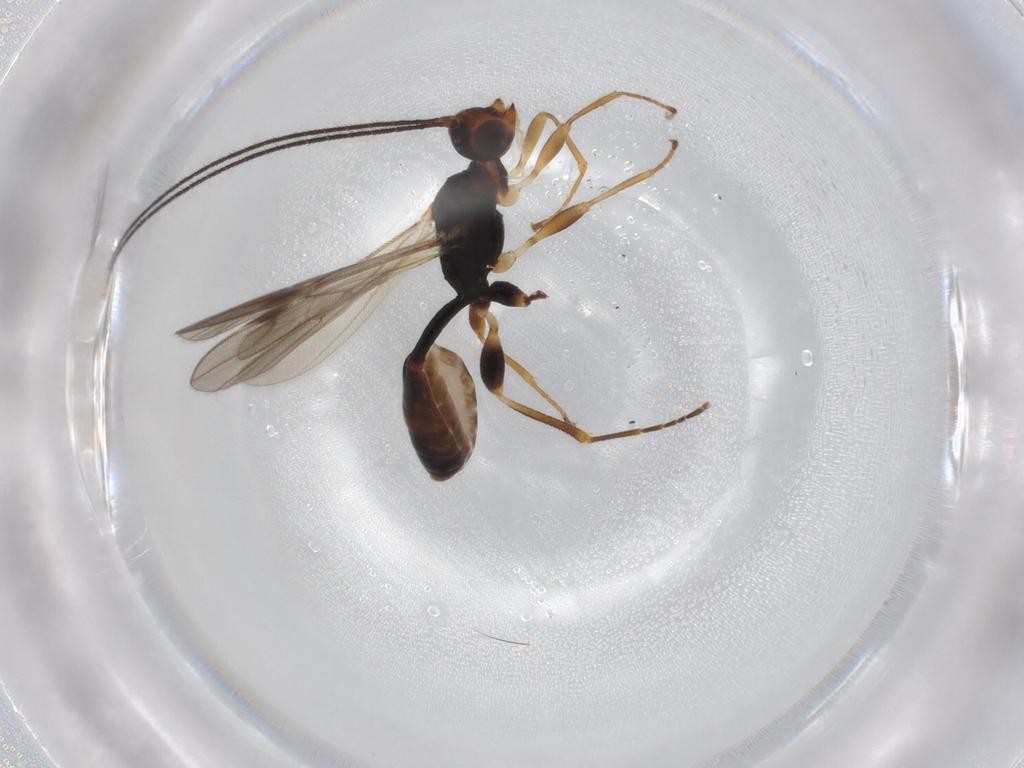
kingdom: Animalia
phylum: Arthropoda
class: Insecta
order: Hymenoptera
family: Braconidae
